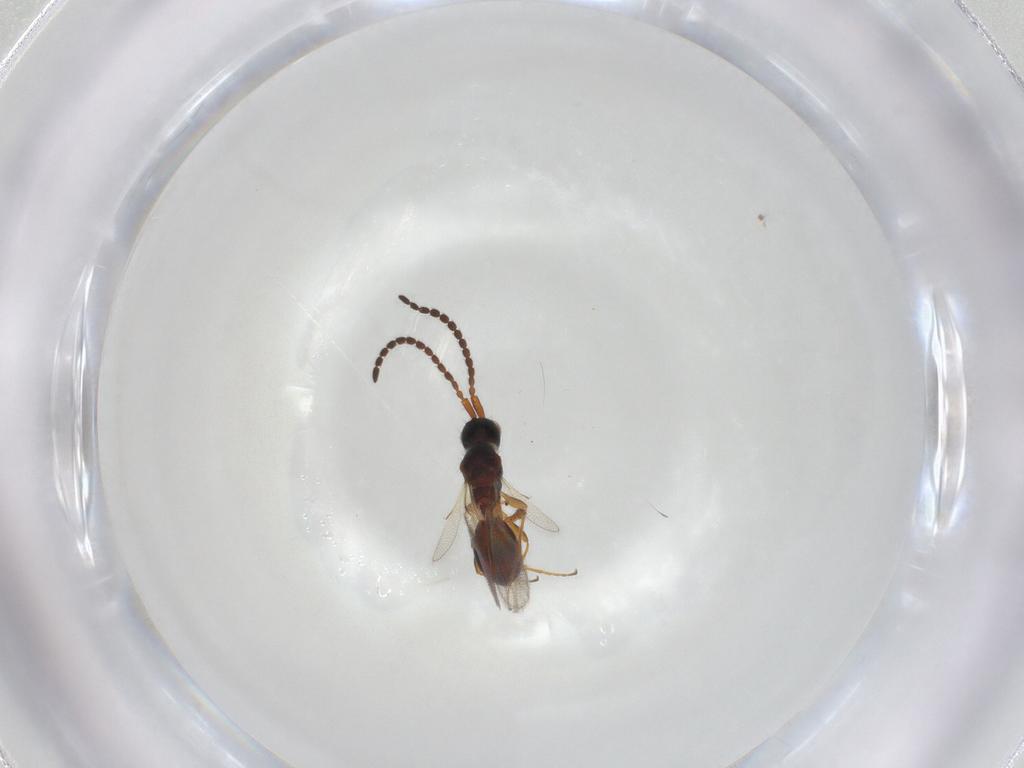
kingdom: Animalia
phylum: Arthropoda
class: Insecta
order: Hymenoptera
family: Diapriidae
